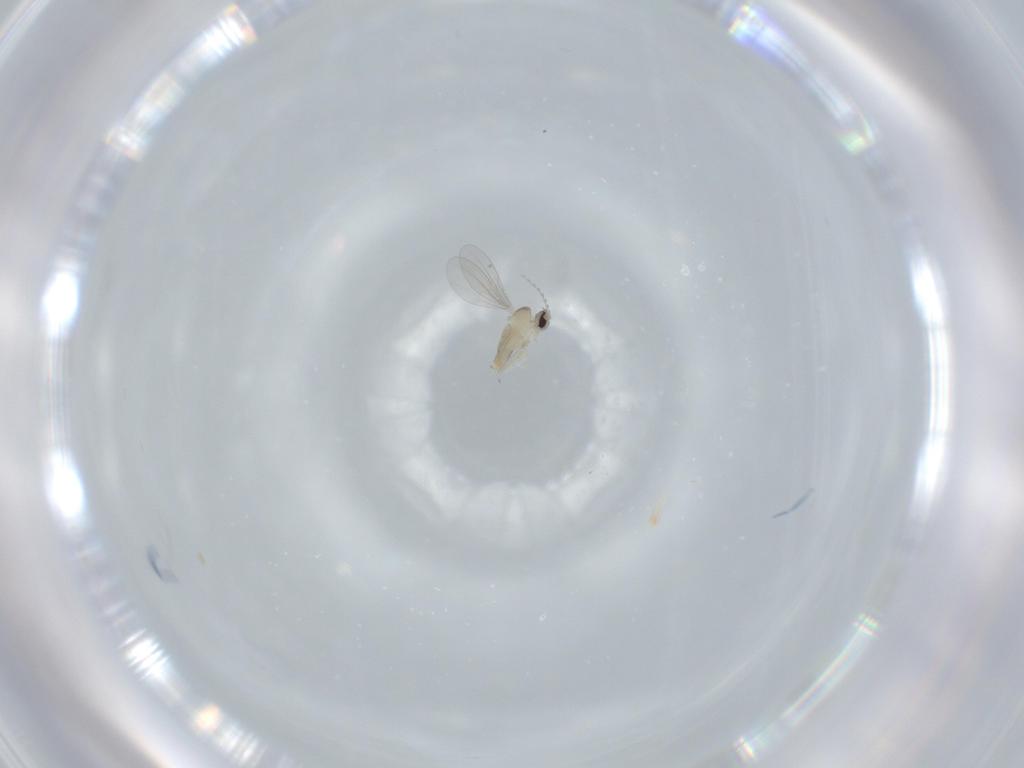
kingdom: Animalia
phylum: Arthropoda
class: Insecta
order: Diptera
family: Cecidomyiidae
